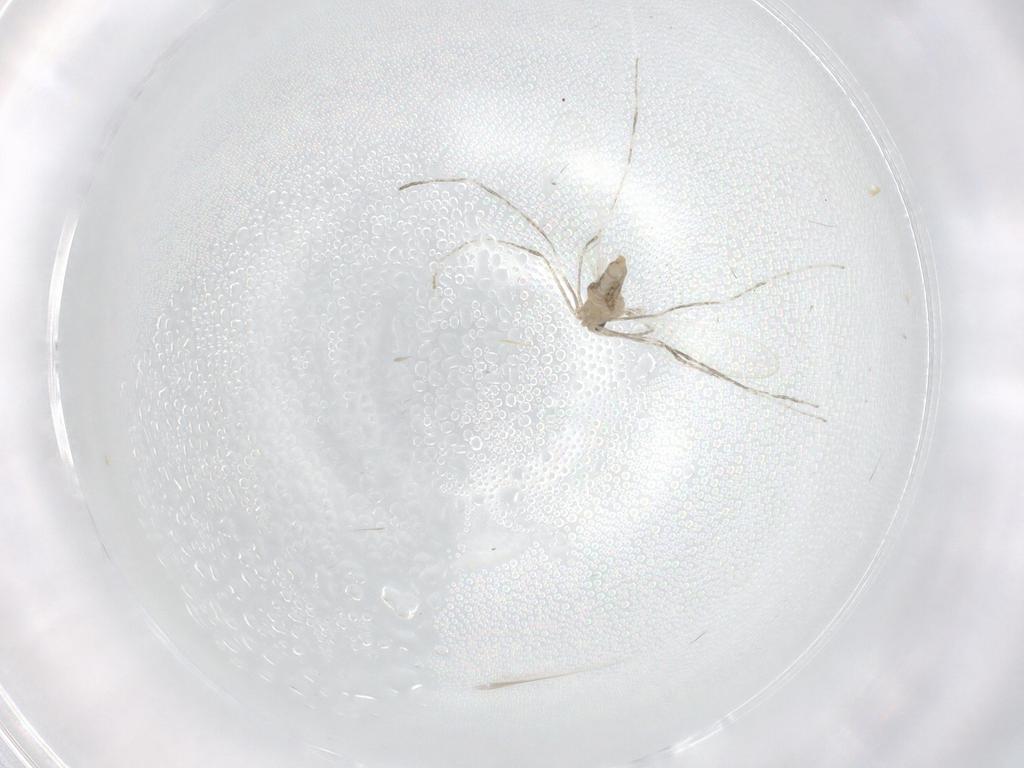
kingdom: Animalia
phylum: Arthropoda
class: Insecta
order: Diptera
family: Cecidomyiidae
